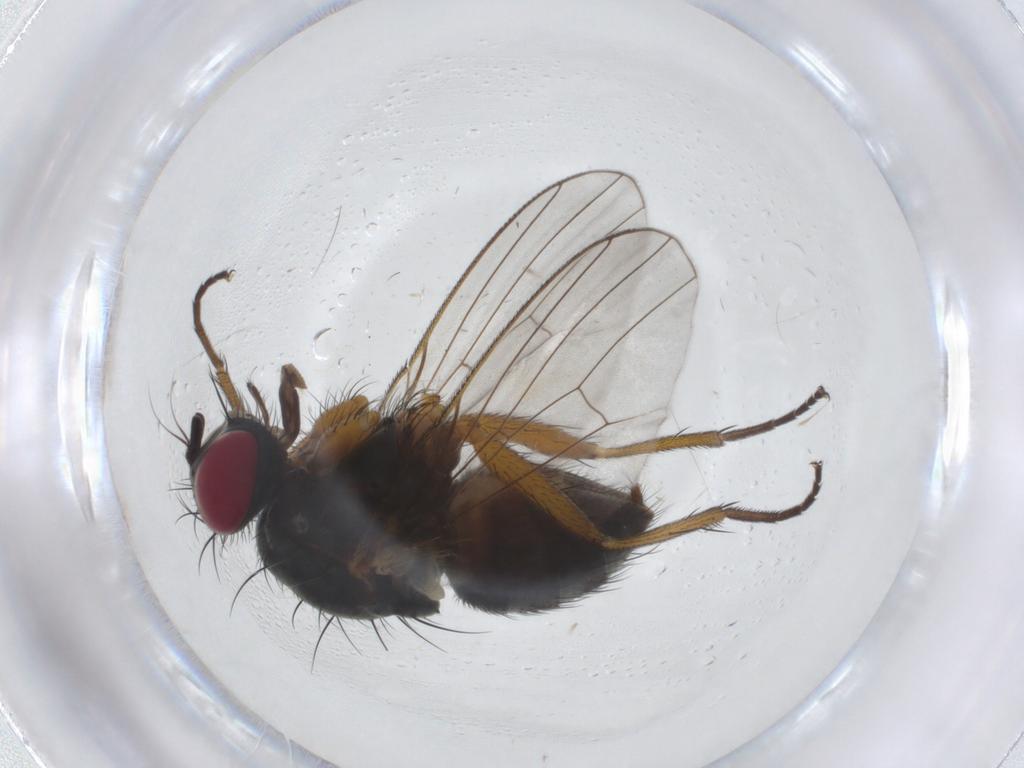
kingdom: Animalia
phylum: Arthropoda
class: Insecta
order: Diptera
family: Muscidae
